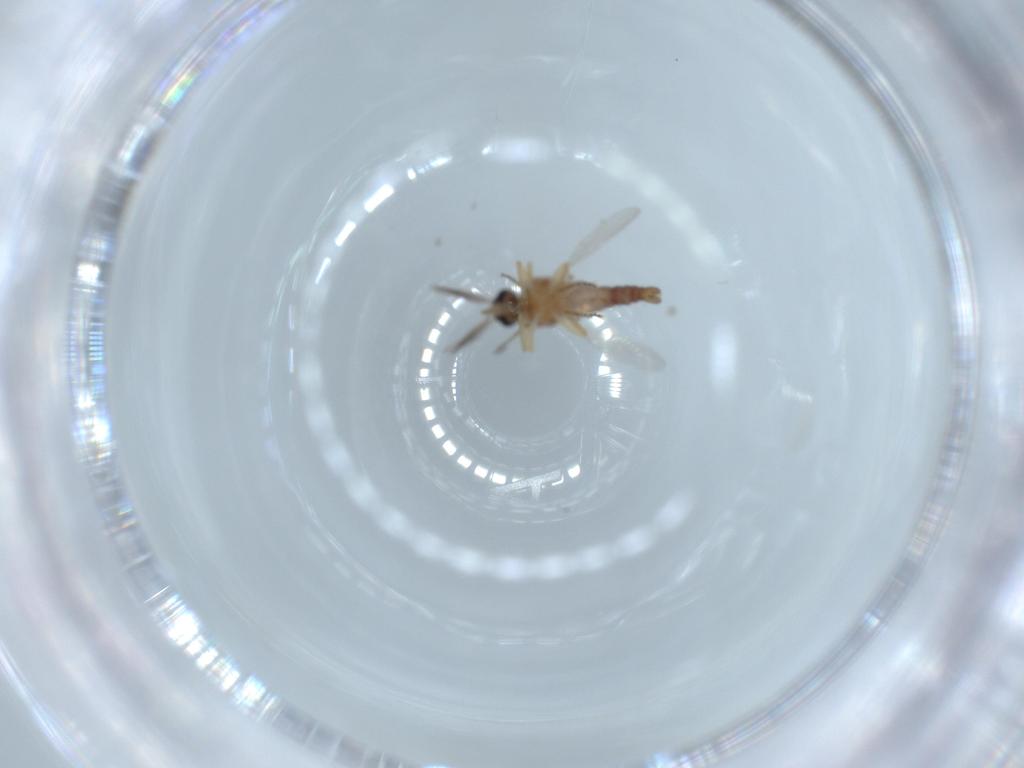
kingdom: Animalia
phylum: Arthropoda
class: Insecta
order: Diptera
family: Ceratopogonidae
